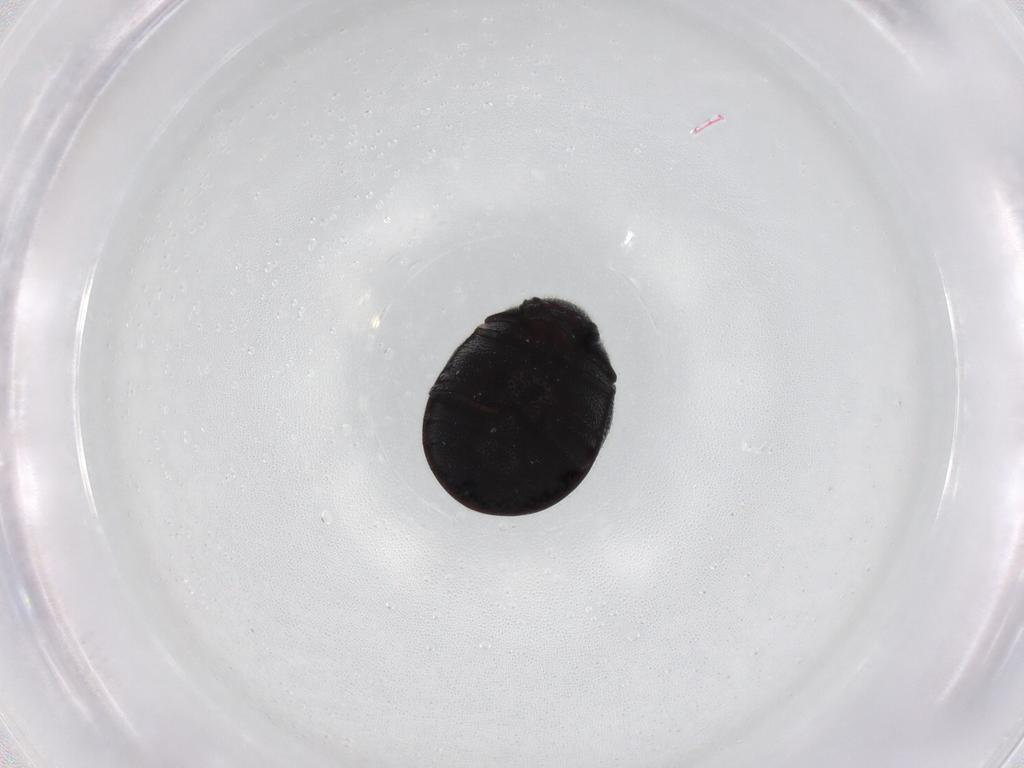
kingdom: Animalia
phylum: Arthropoda
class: Insecta
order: Coleoptera
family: Ptinidae
